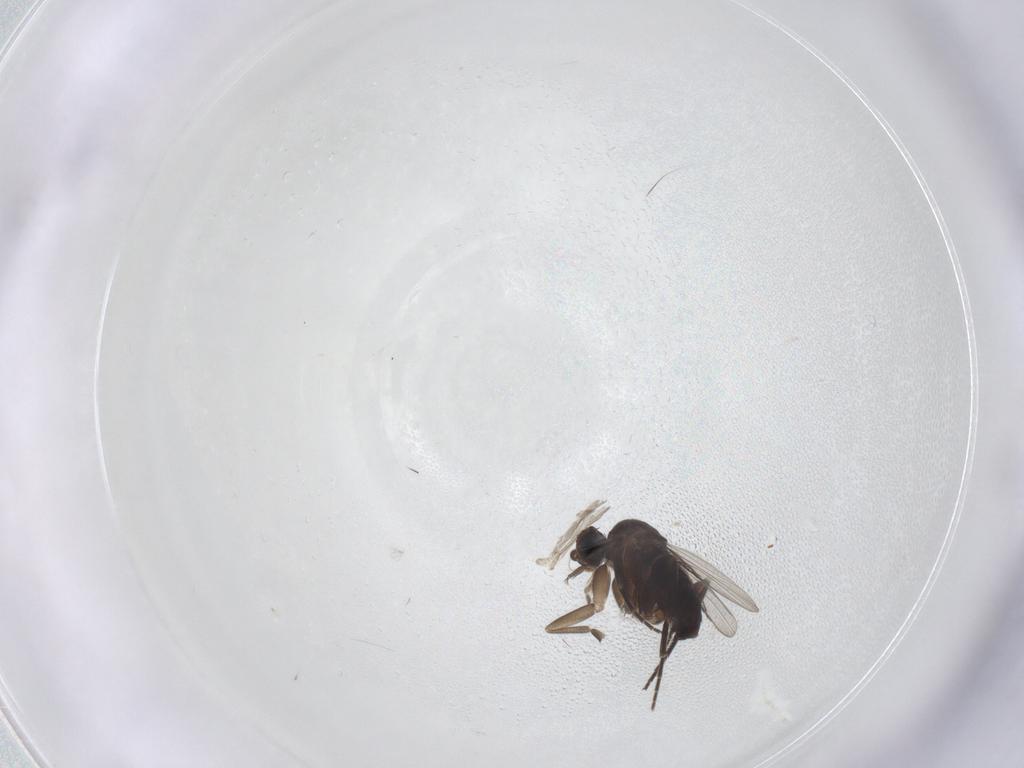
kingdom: Animalia
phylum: Arthropoda
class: Insecta
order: Diptera
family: Phoridae
